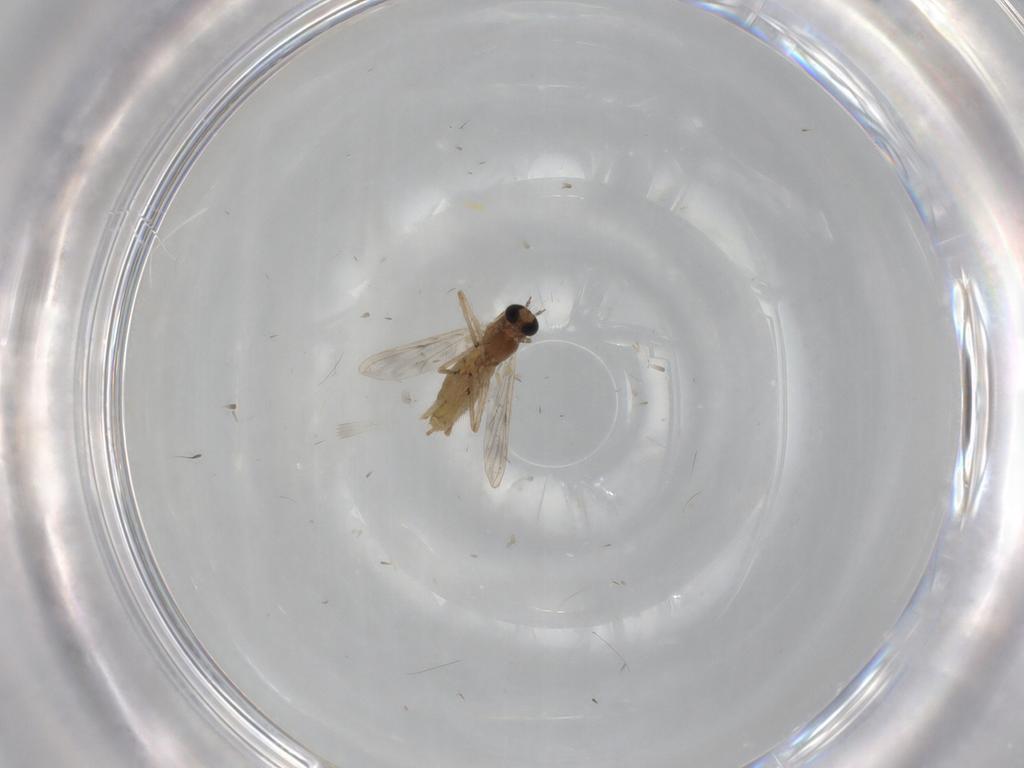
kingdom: Animalia
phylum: Arthropoda
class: Insecta
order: Diptera
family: Chironomidae
